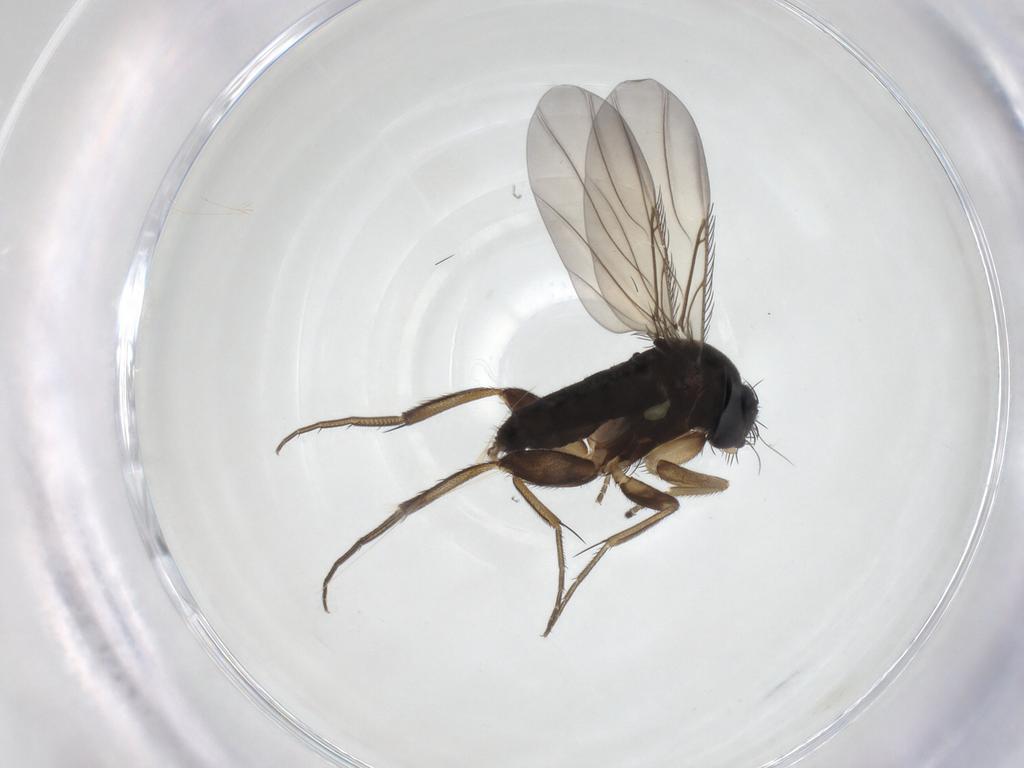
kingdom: Animalia
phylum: Arthropoda
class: Insecta
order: Diptera
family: Phoridae
